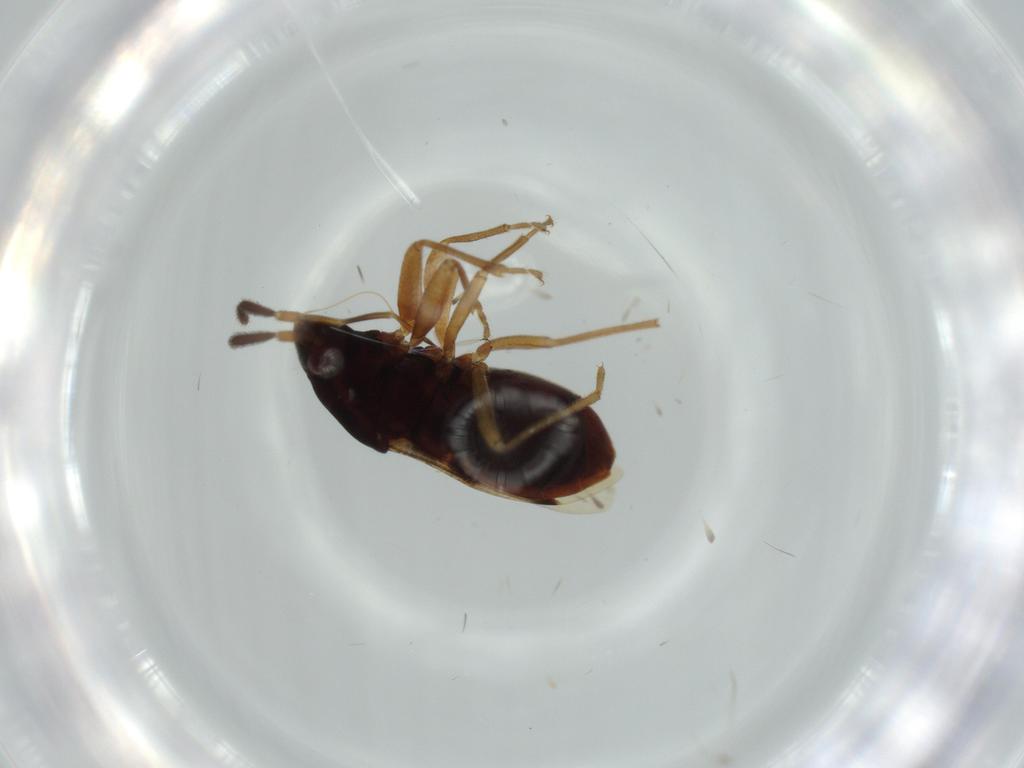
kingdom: Animalia
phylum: Arthropoda
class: Insecta
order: Hemiptera
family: Rhyparochromidae
